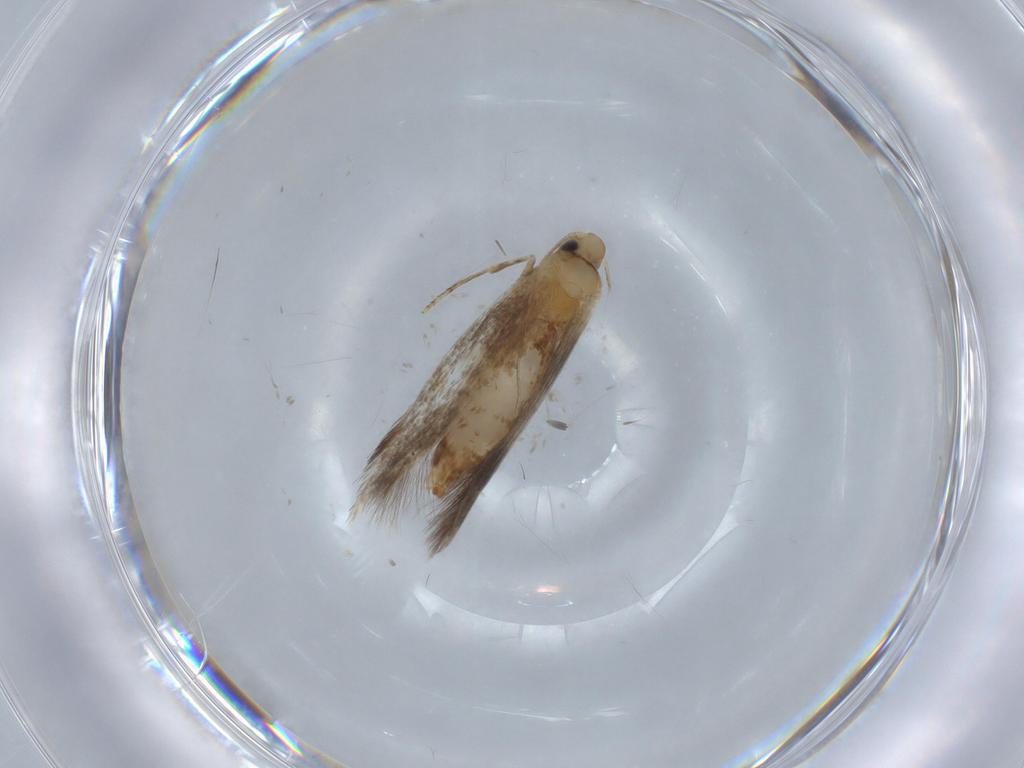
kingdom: Animalia
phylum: Arthropoda
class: Insecta
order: Lepidoptera
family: Tischeriidae
